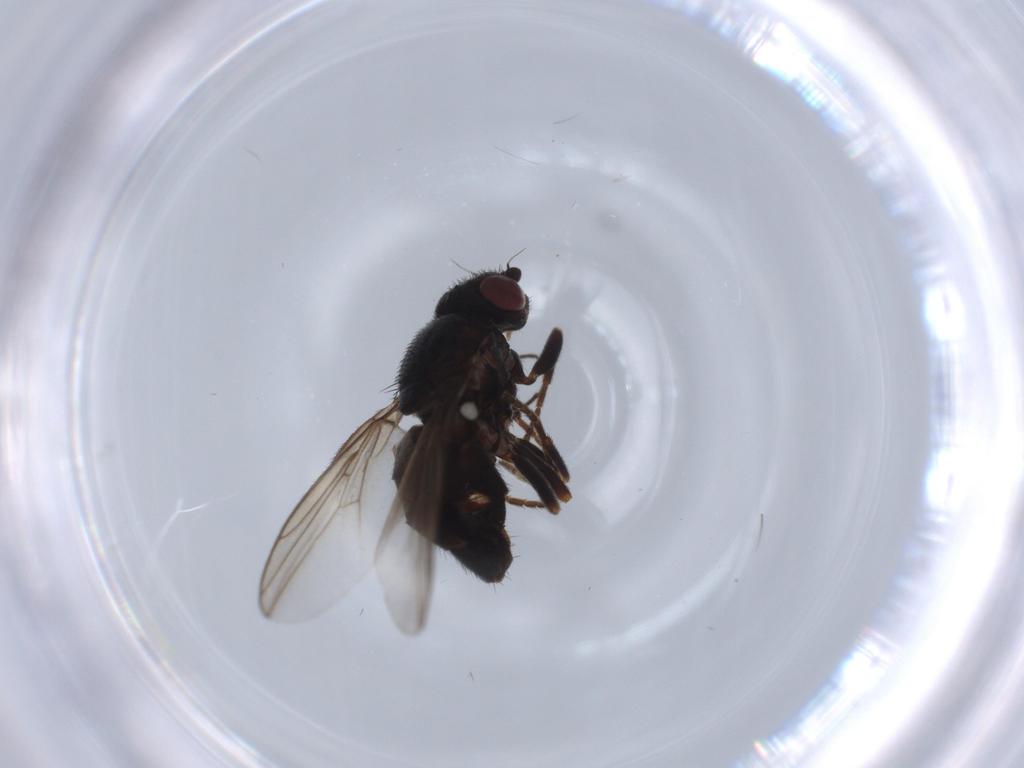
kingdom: Animalia
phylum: Arthropoda
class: Insecta
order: Diptera
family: Chloropidae
